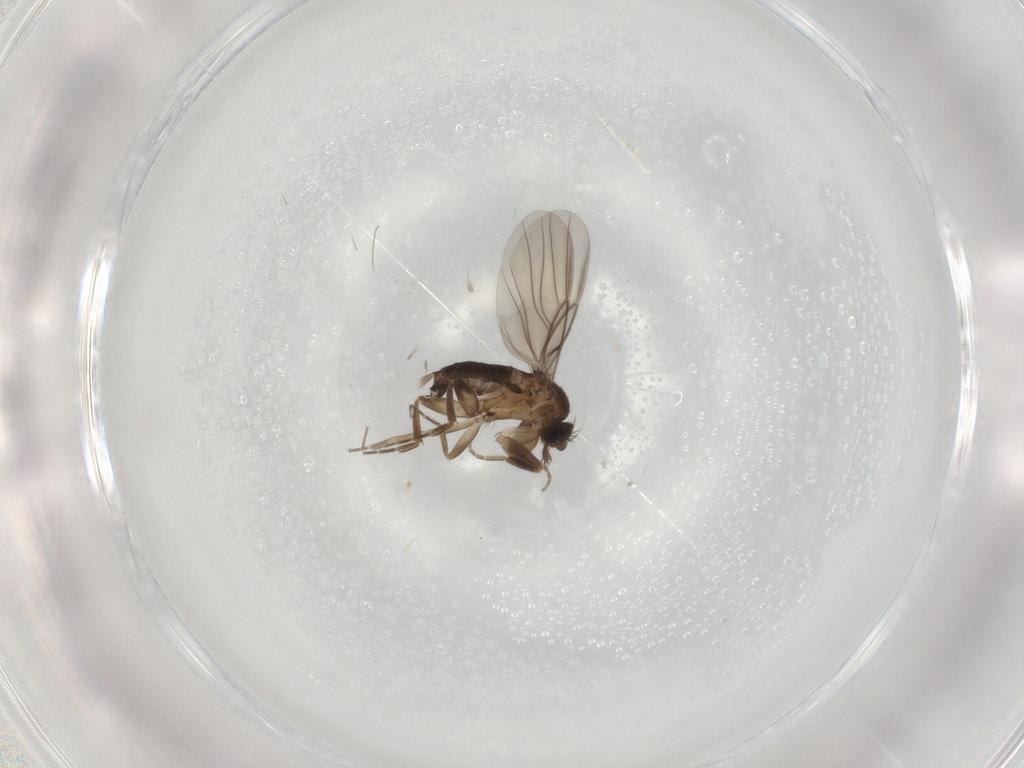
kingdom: Animalia
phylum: Arthropoda
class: Insecta
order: Diptera
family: Phoridae
